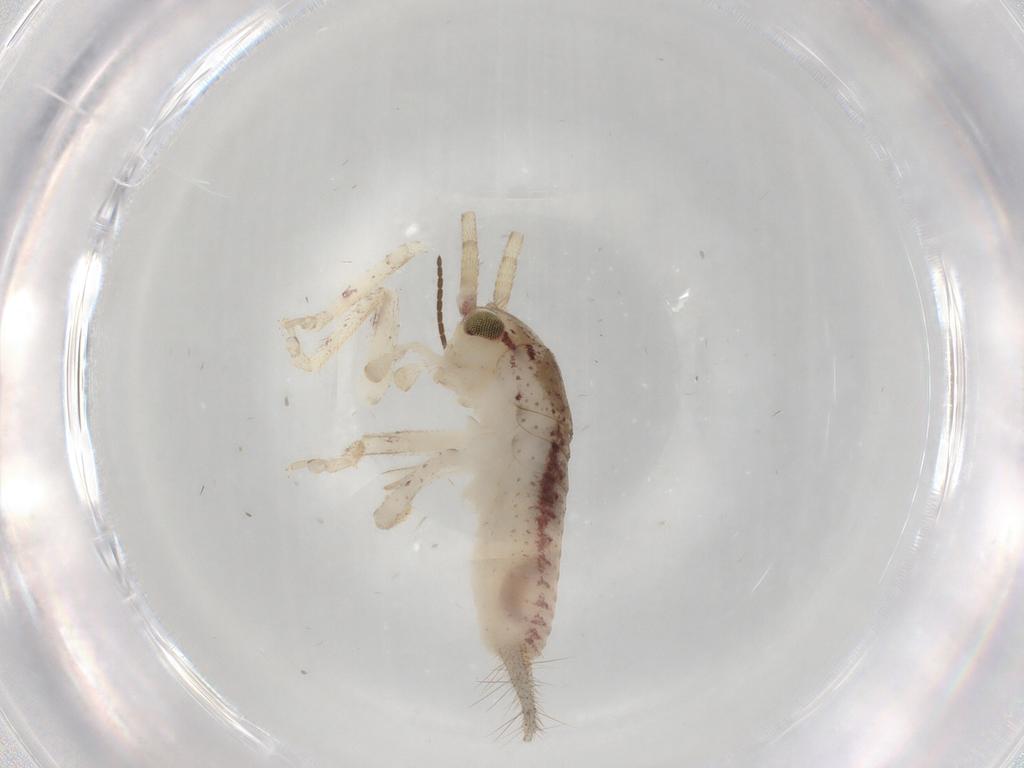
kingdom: Animalia
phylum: Arthropoda
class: Insecta
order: Orthoptera
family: Gryllidae
